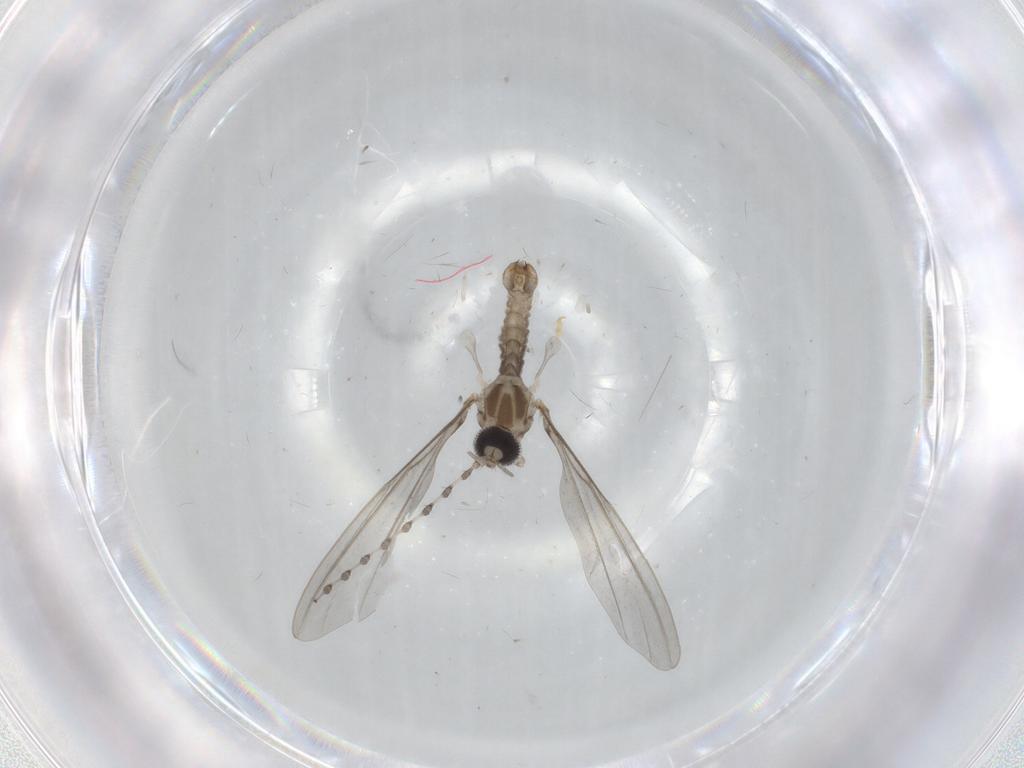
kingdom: Animalia
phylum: Arthropoda
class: Insecta
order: Diptera
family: Cecidomyiidae
